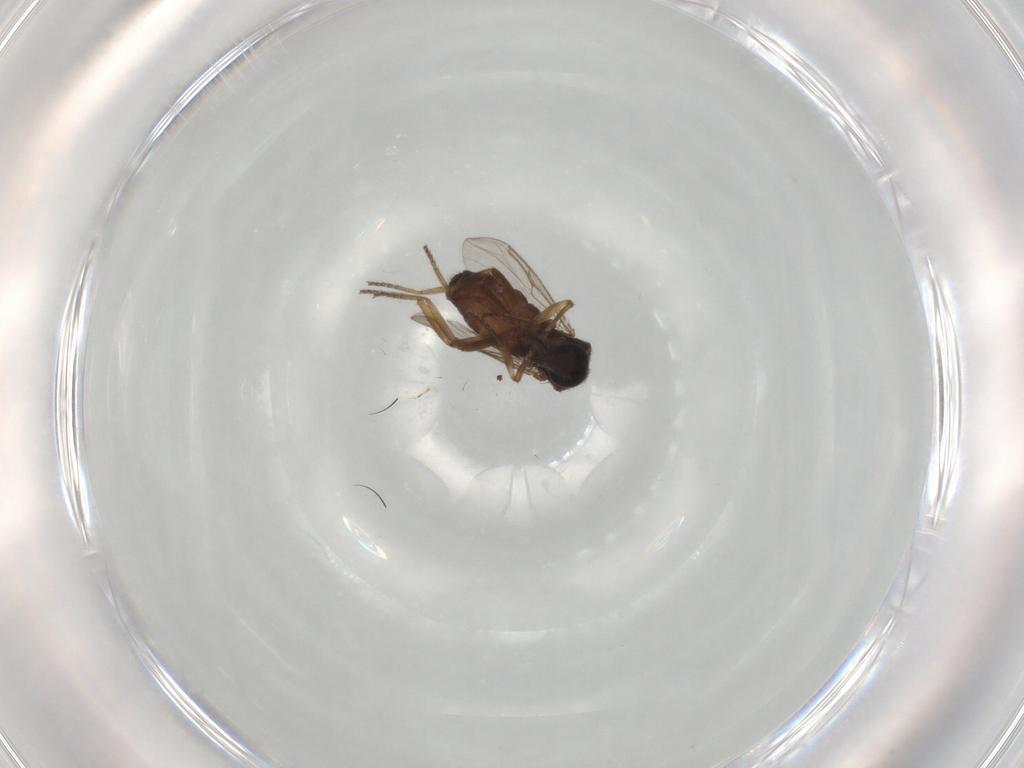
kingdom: Animalia
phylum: Arthropoda
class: Insecta
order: Diptera
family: Ceratopogonidae
